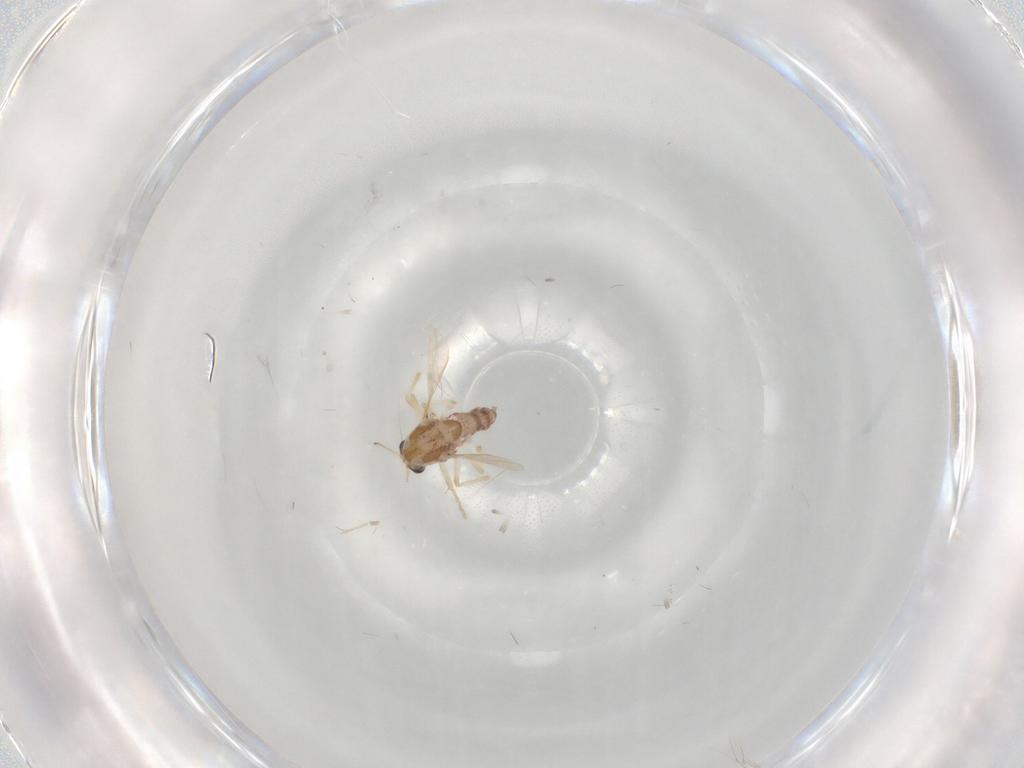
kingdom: Animalia
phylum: Arthropoda
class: Insecta
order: Diptera
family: Chironomidae
